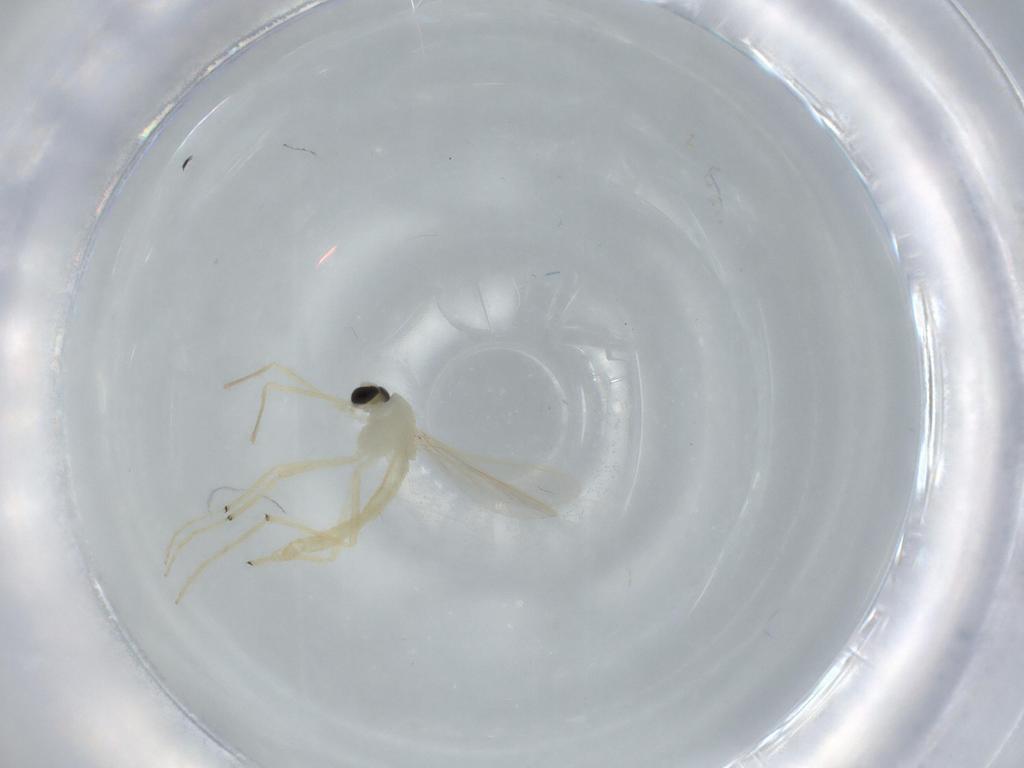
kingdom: Animalia
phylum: Arthropoda
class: Insecta
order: Diptera
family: Chironomidae
